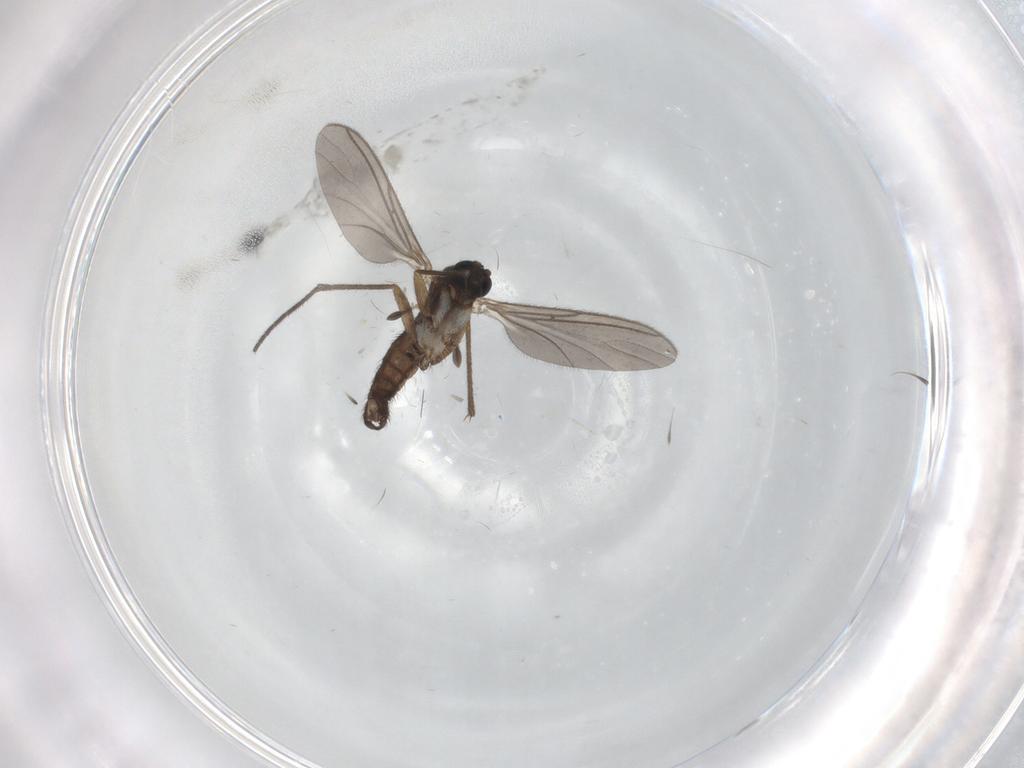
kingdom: Animalia
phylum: Arthropoda
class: Insecta
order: Diptera
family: Sciaridae
